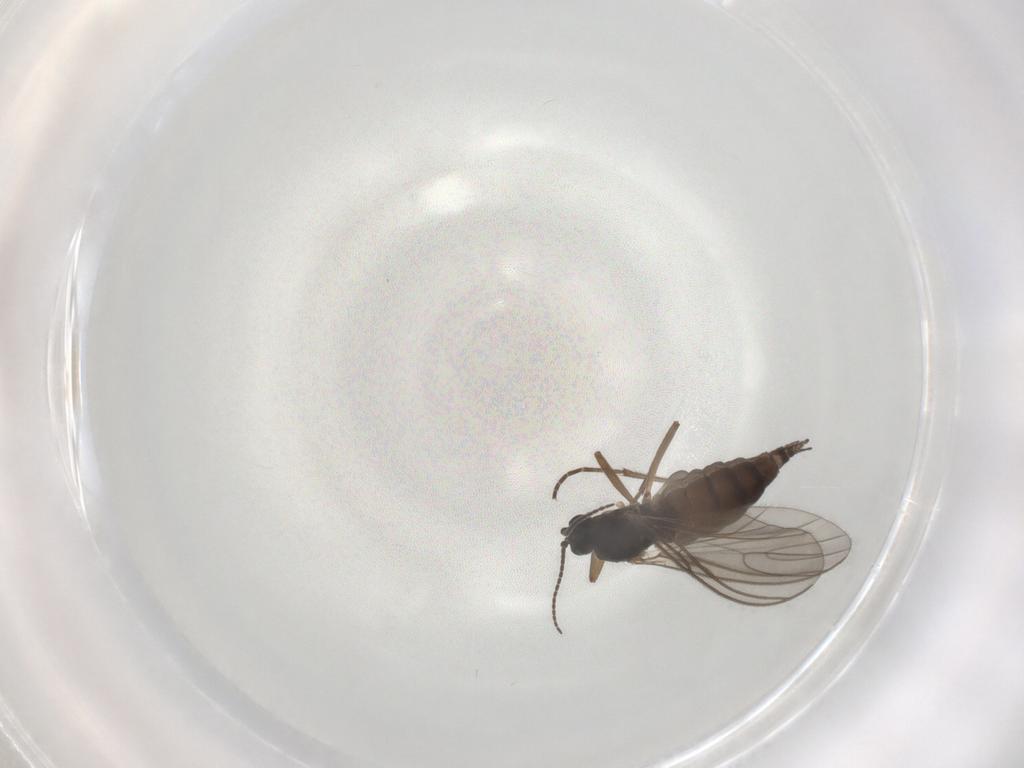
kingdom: Animalia
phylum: Arthropoda
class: Insecta
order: Diptera
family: Sciaridae
